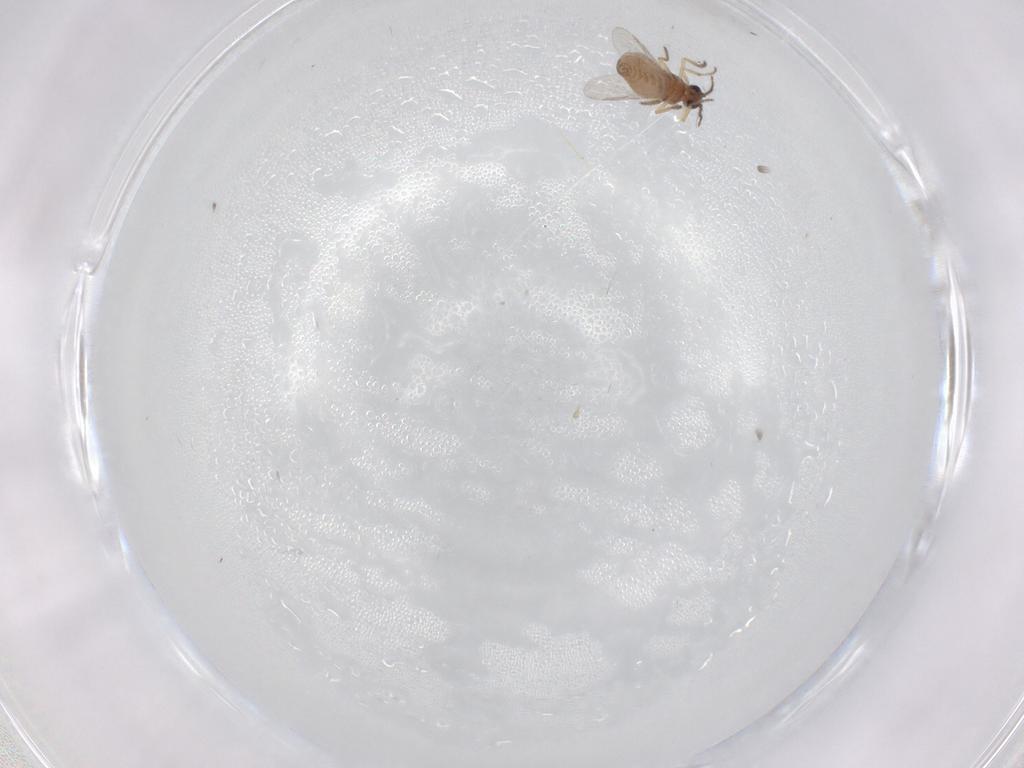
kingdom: Animalia
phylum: Arthropoda
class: Insecta
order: Diptera
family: Ceratopogonidae
